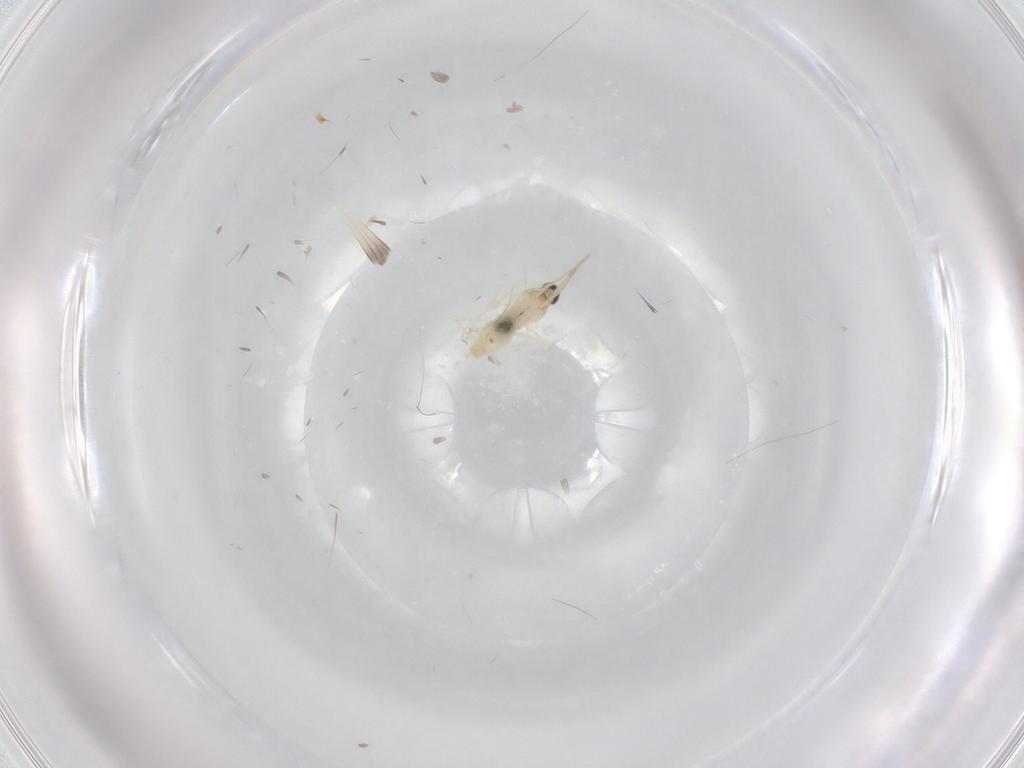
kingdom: Animalia
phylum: Arthropoda
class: Insecta
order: Diptera
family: Cecidomyiidae
